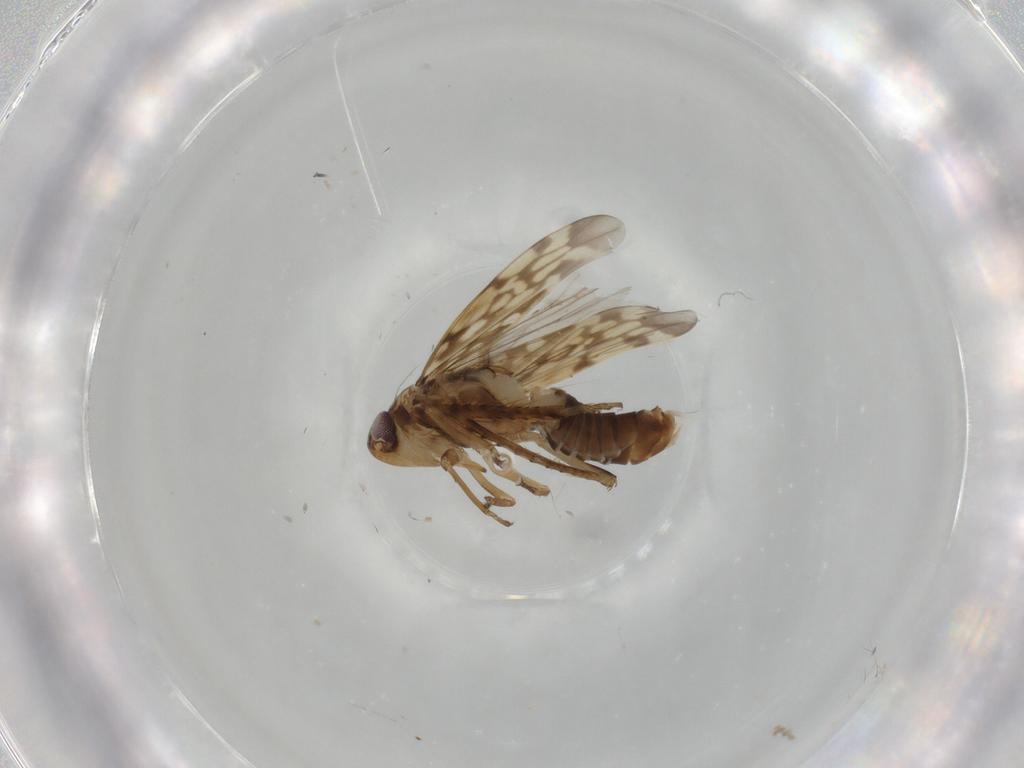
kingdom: Animalia
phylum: Arthropoda
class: Insecta
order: Hemiptera
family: Cicadellidae
